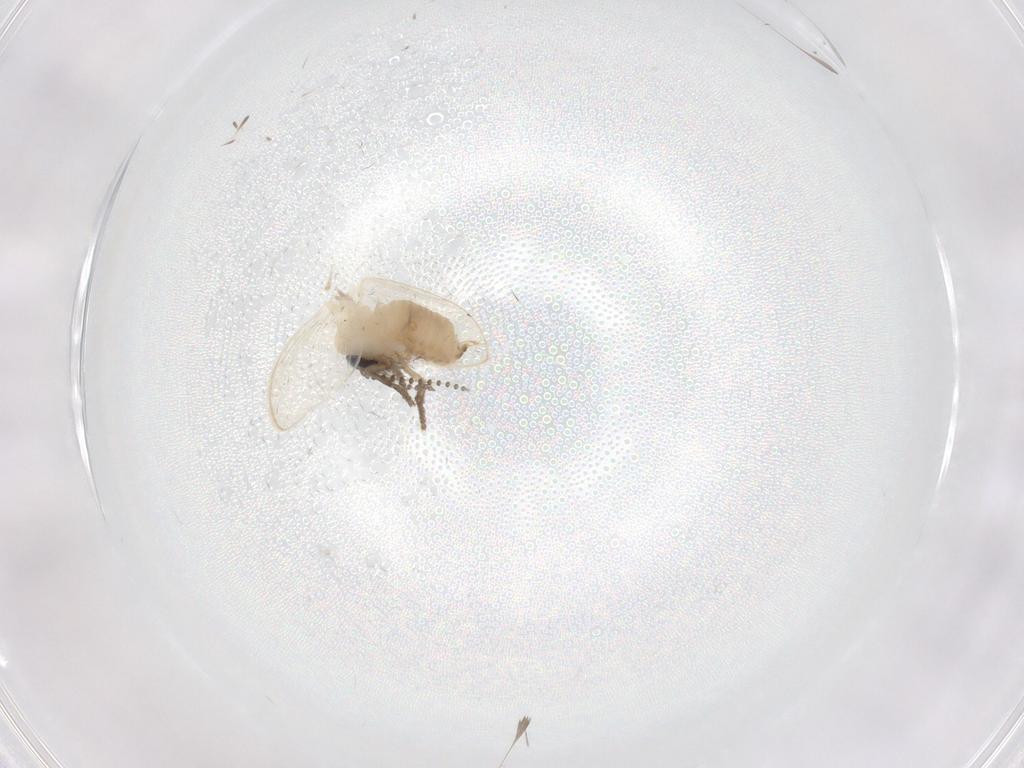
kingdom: Animalia
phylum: Arthropoda
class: Insecta
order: Diptera
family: Psychodidae
